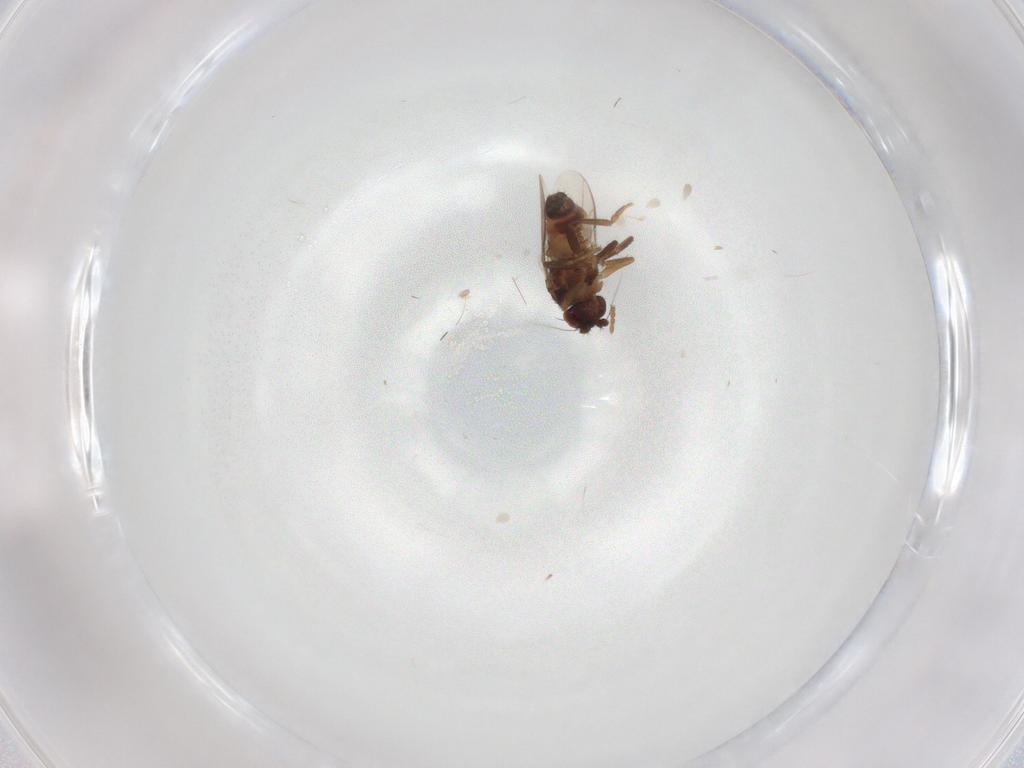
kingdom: Animalia
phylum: Arthropoda
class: Insecta
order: Diptera
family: Sphaeroceridae
